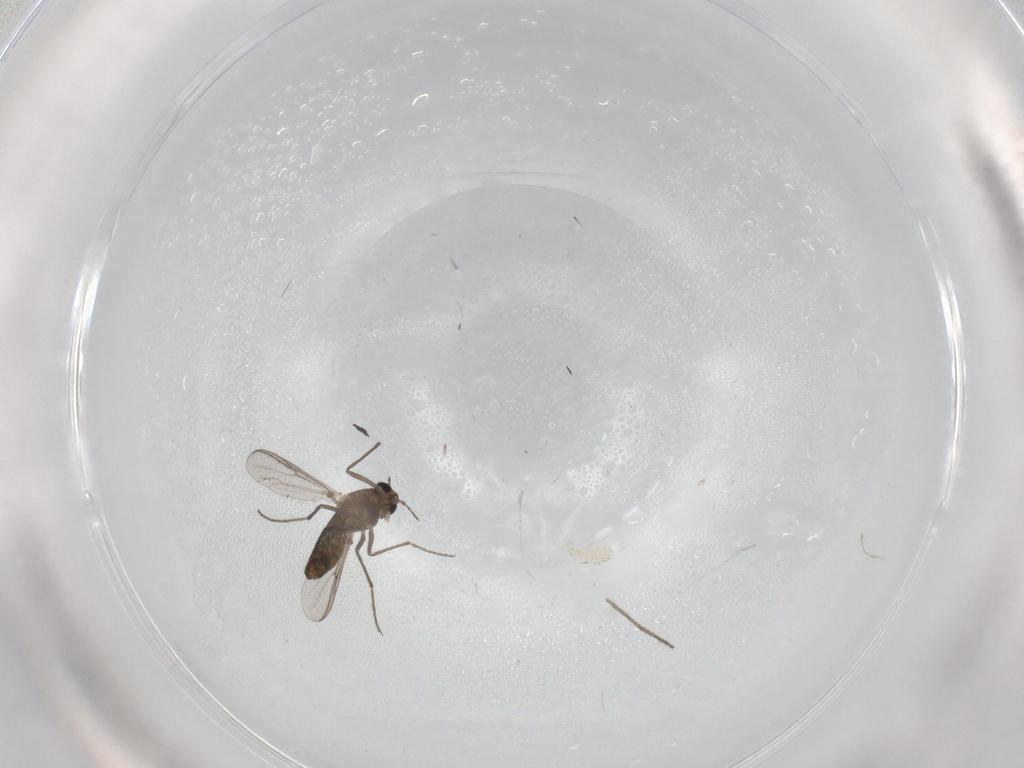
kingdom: Animalia
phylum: Arthropoda
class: Insecta
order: Diptera
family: Chironomidae
